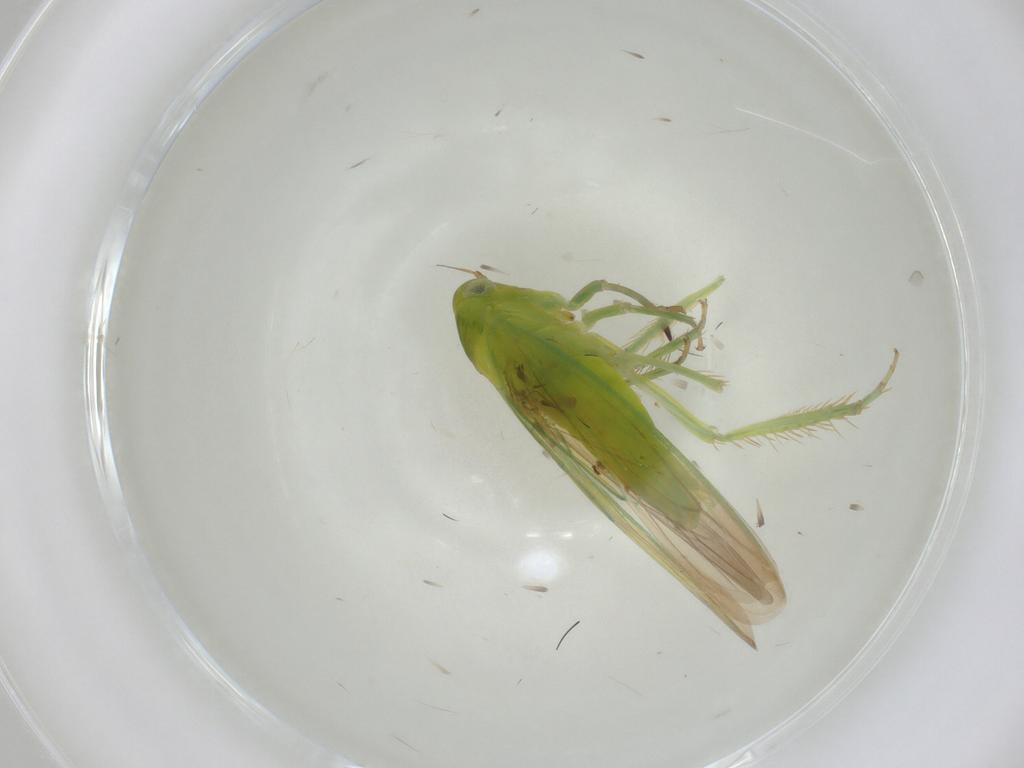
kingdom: Animalia
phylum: Arthropoda
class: Insecta
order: Hemiptera
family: Cicadellidae
